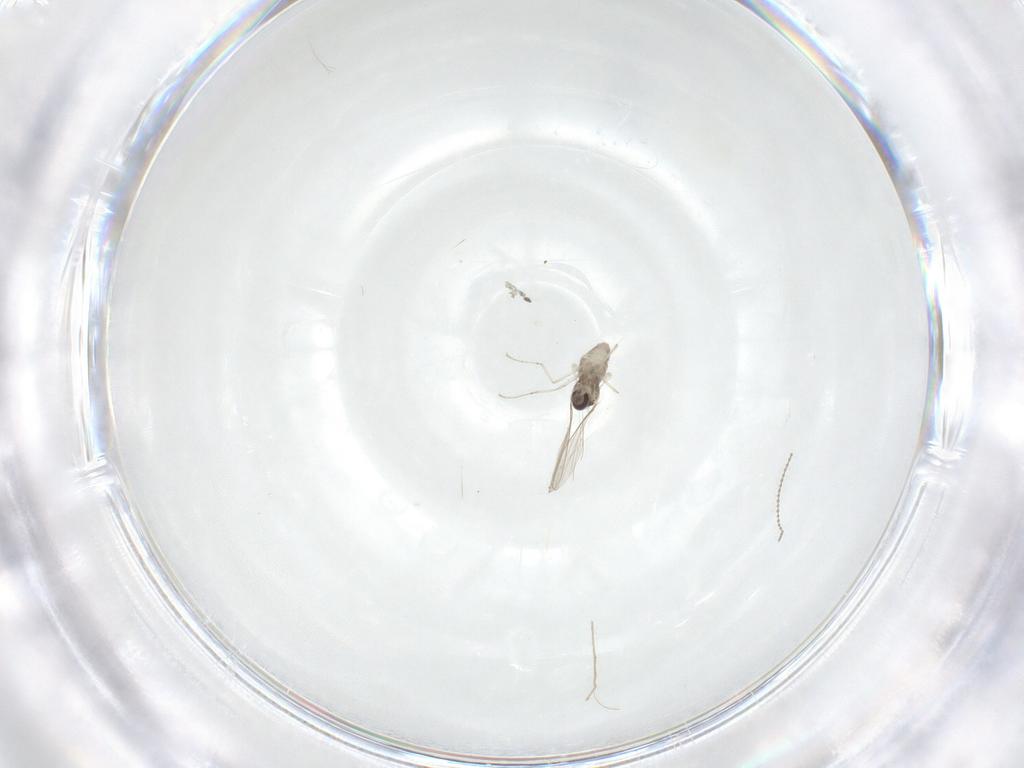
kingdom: Animalia
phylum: Arthropoda
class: Insecta
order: Diptera
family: Cecidomyiidae
